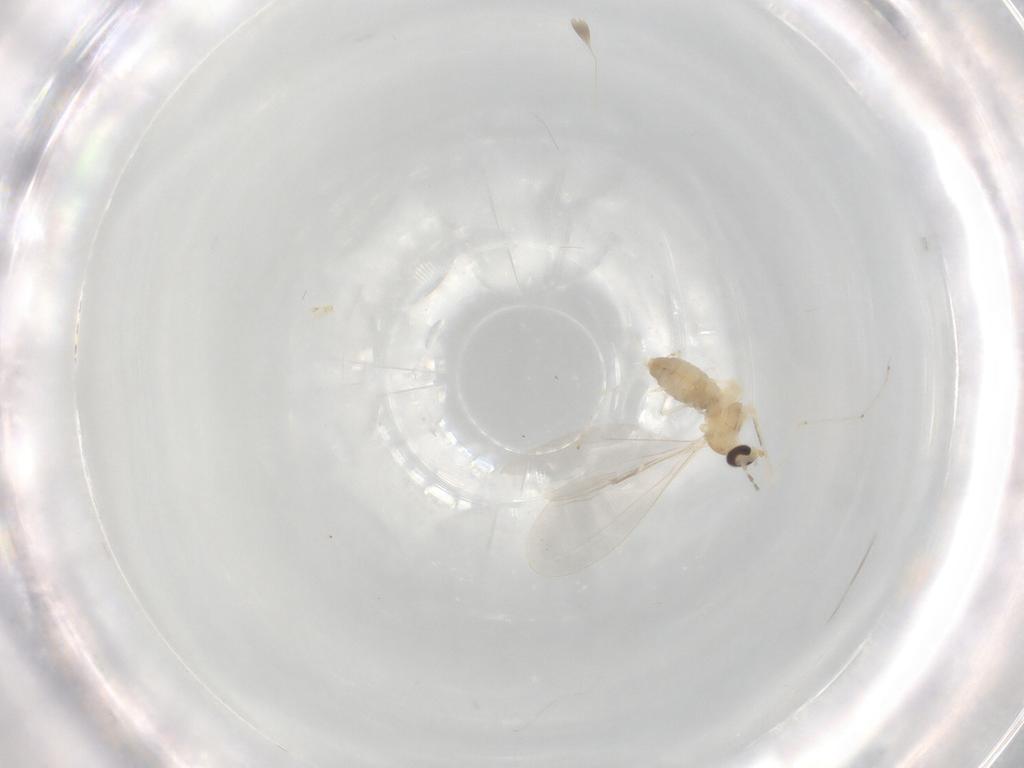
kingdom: Animalia
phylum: Arthropoda
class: Insecta
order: Diptera
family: Cecidomyiidae
